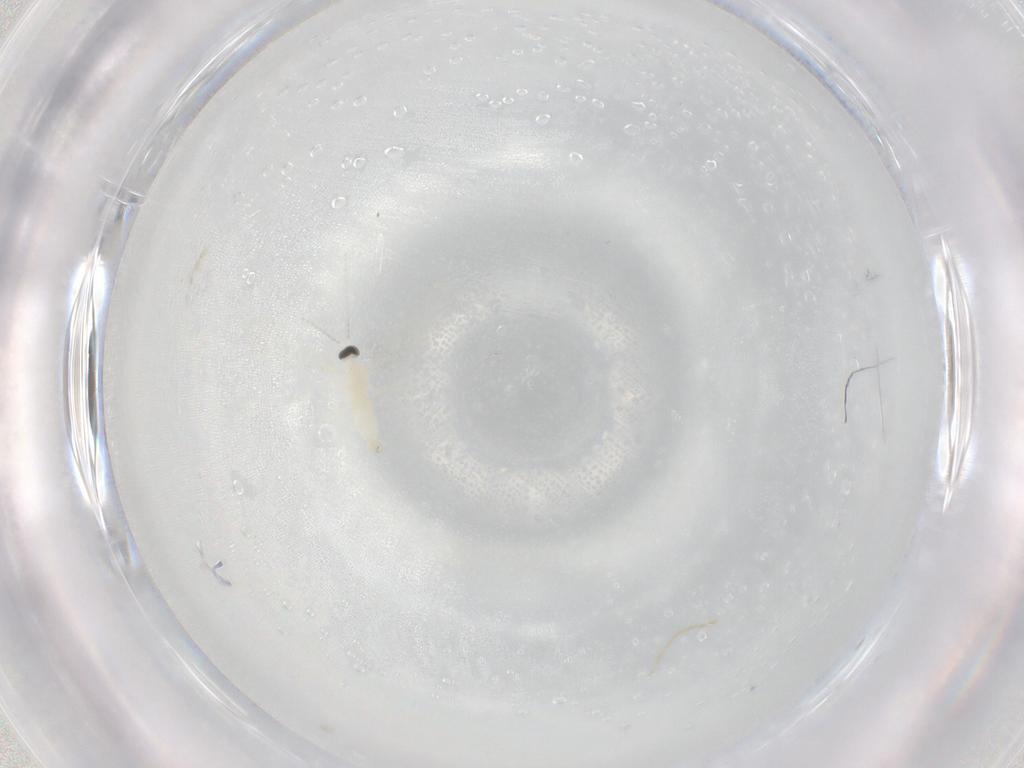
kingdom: Animalia
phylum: Arthropoda
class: Insecta
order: Diptera
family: Cecidomyiidae
